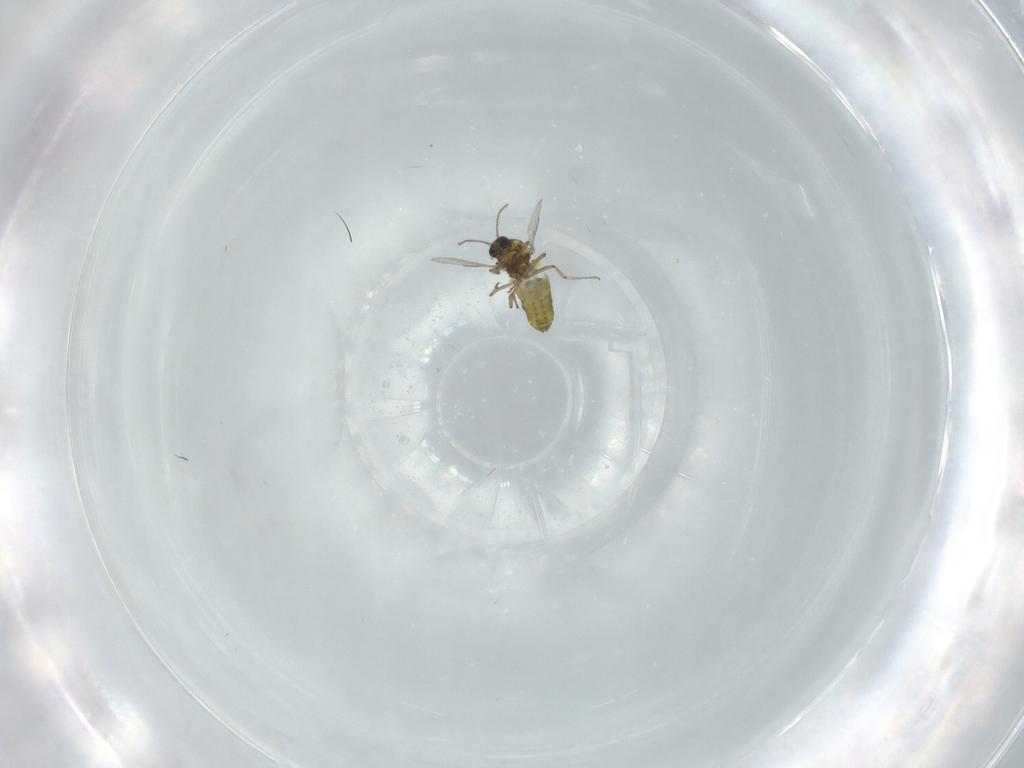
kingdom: Animalia
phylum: Arthropoda
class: Insecta
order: Diptera
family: Ceratopogonidae
